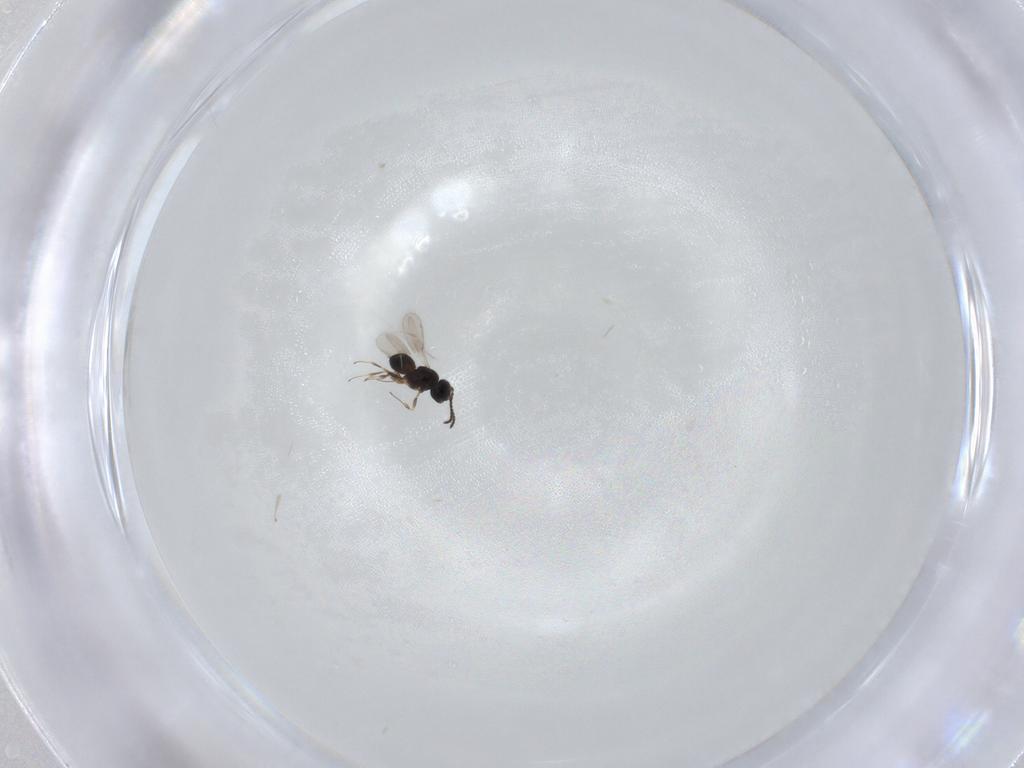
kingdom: Animalia
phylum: Arthropoda
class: Insecta
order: Hymenoptera
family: Scelionidae
